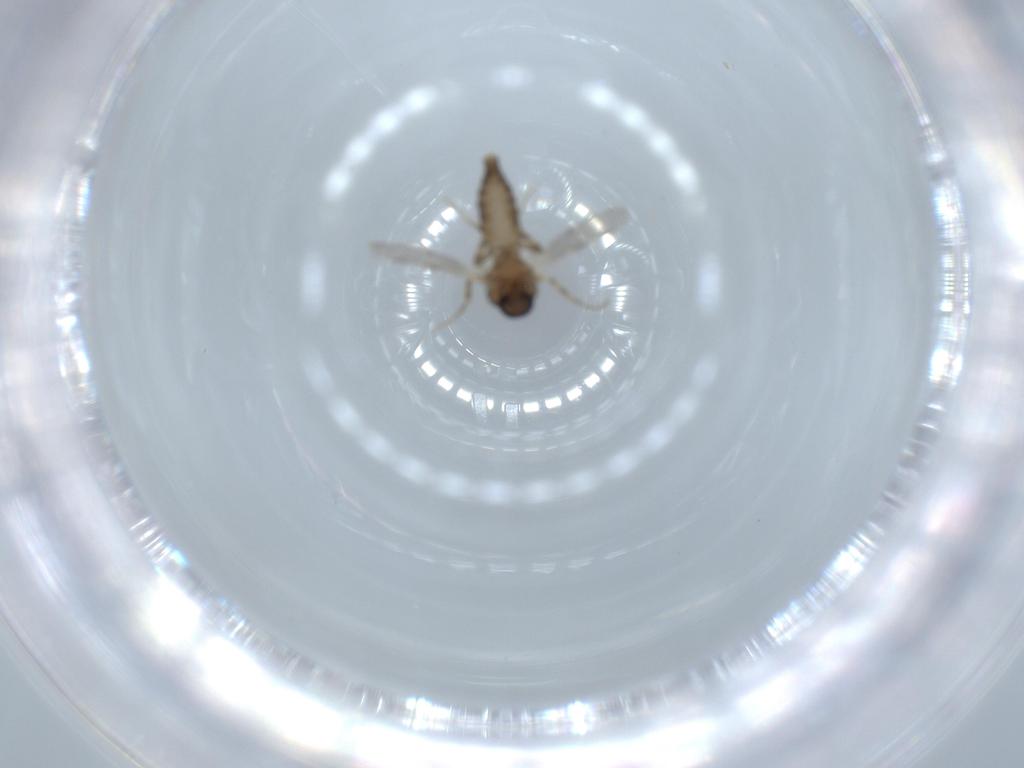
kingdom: Animalia
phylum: Arthropoda
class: Insecta
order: Diptera
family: Ceratopogonidae
